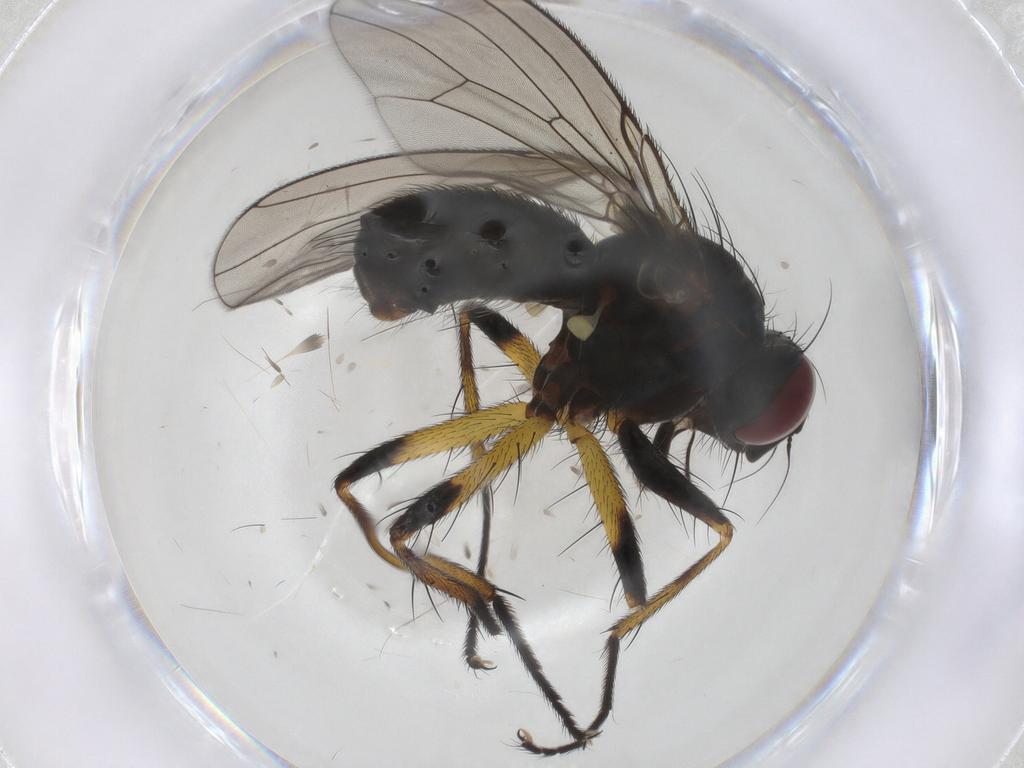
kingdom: Animalia
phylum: Arthropoda
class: Insecta
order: Diptera
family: Muscidae
